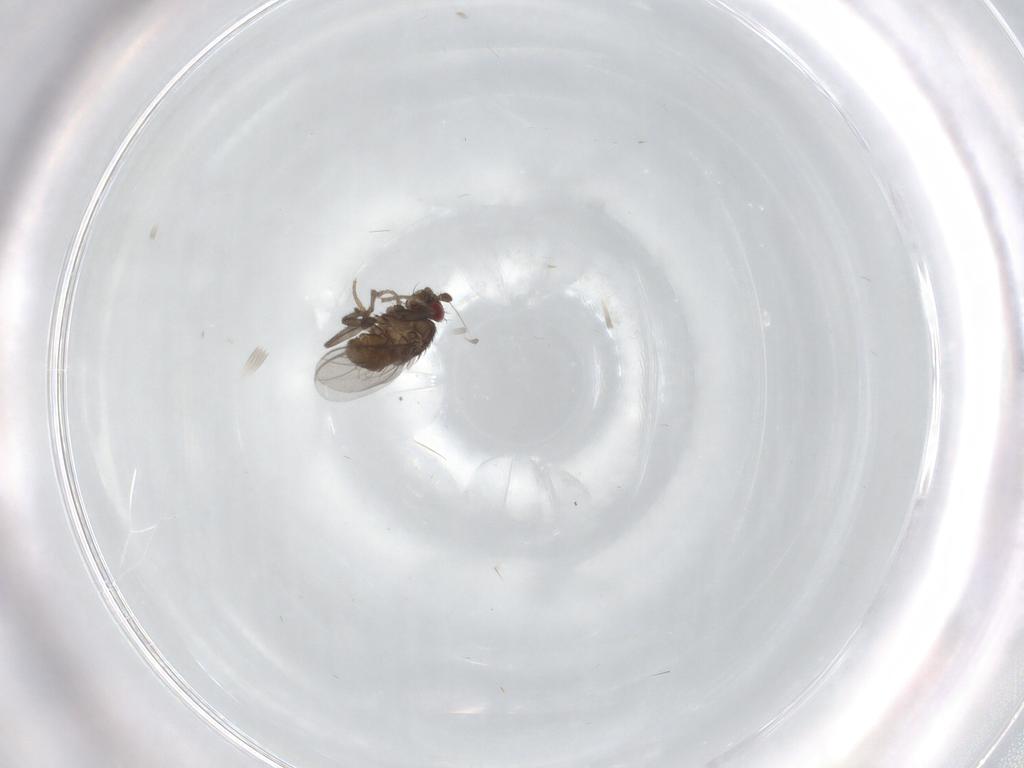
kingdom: Animalia
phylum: Arthropoda
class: Insecta
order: Diptera
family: Sphaeroceridae
